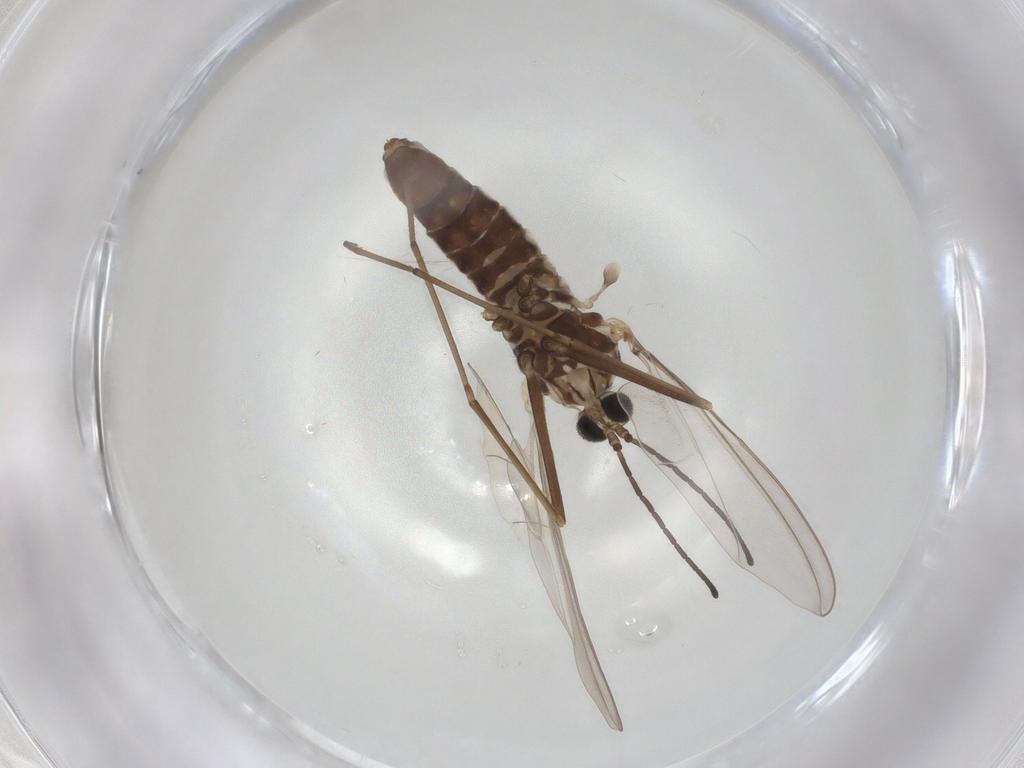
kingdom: Animalia
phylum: Arthropoda
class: Insecta
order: Diptera
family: Cecidomyiidae
